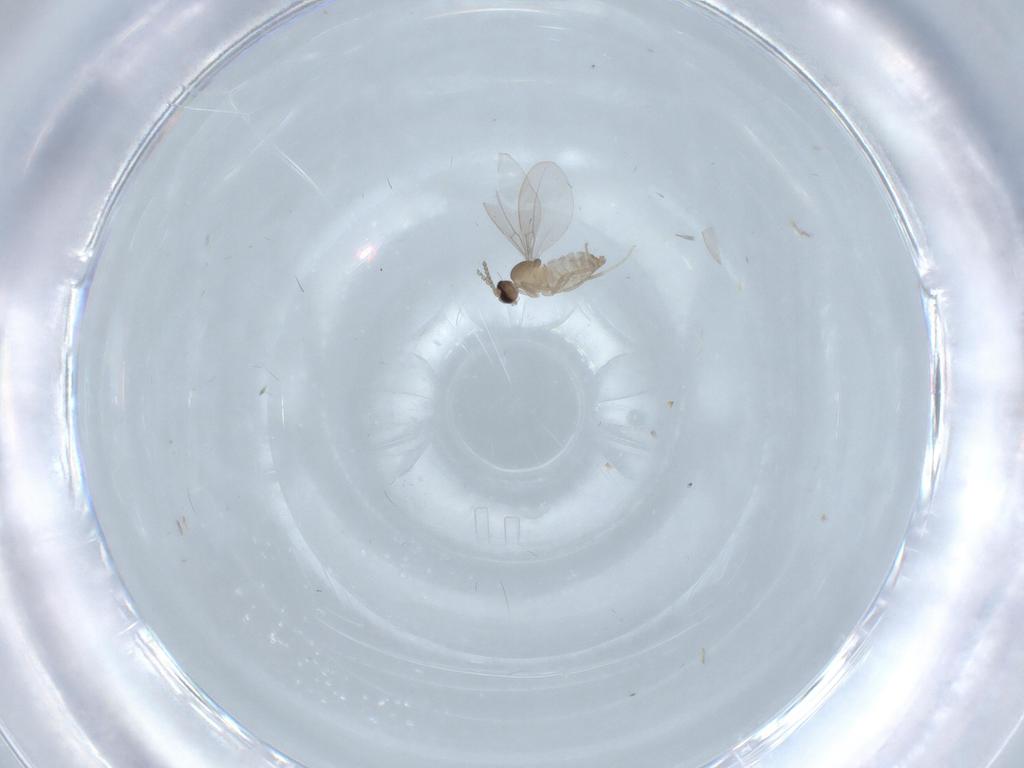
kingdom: Animalia
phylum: Arthropoda
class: Insecta
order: Diptera
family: Cecidomyiidae
